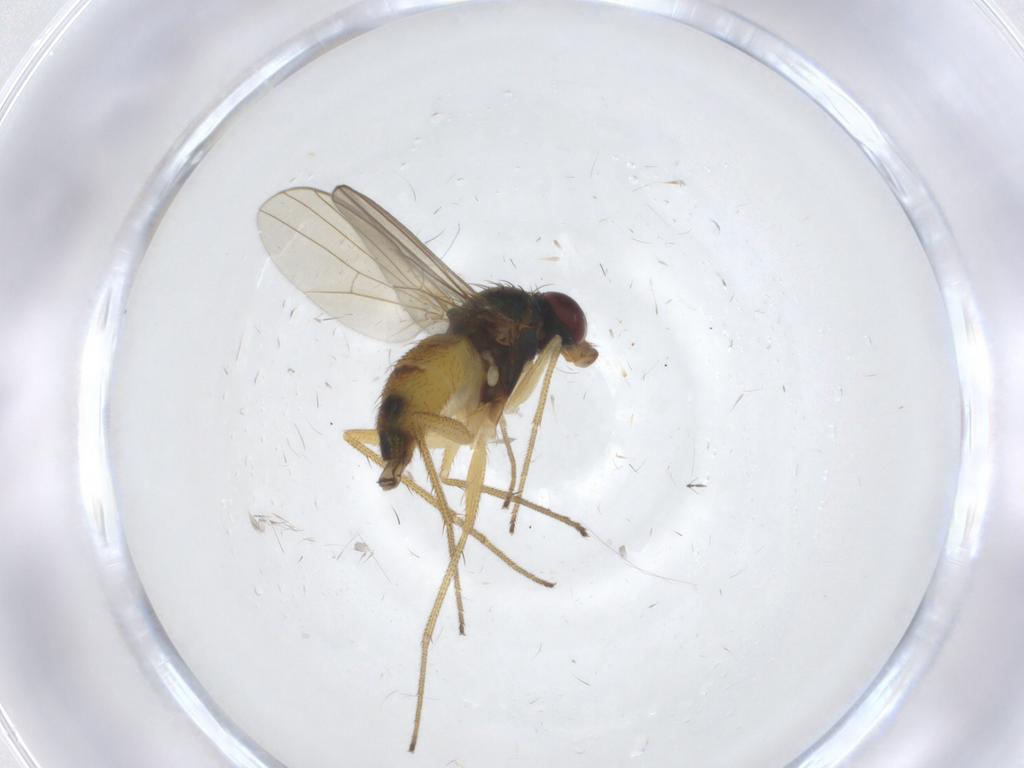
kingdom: Animalia
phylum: Arthropoda
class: Insecta
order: Diptera
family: Dolichopodidae
